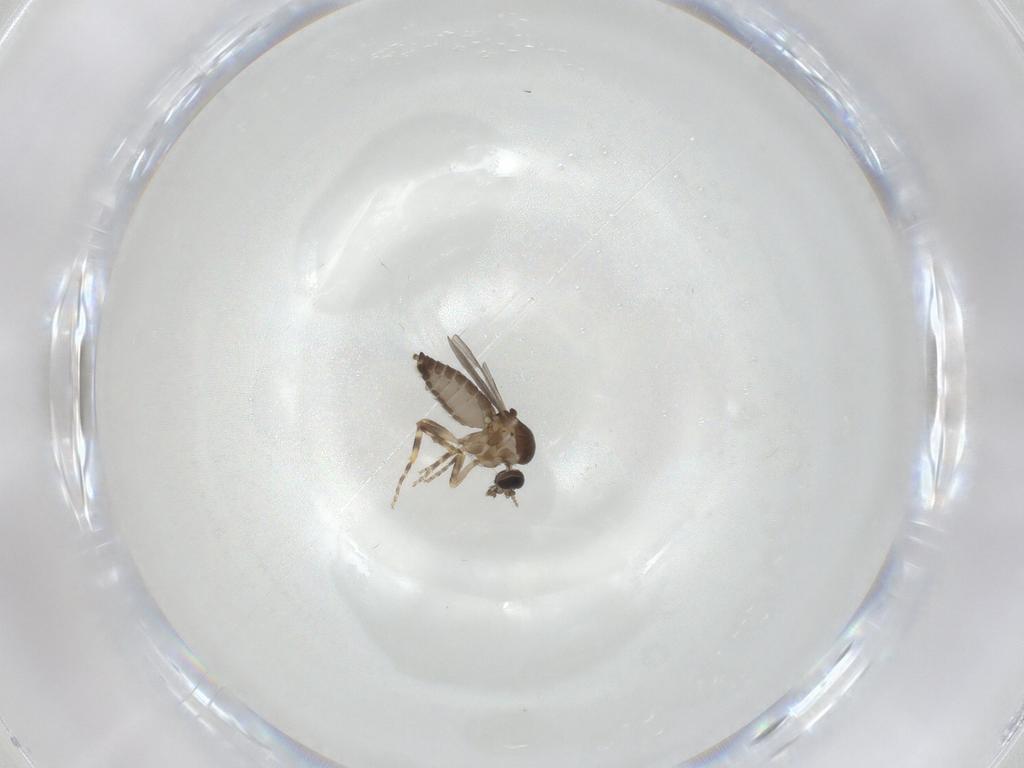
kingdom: Animalia
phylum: Arthropoda
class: Insecta
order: Diptera
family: Ceratopogonidae
